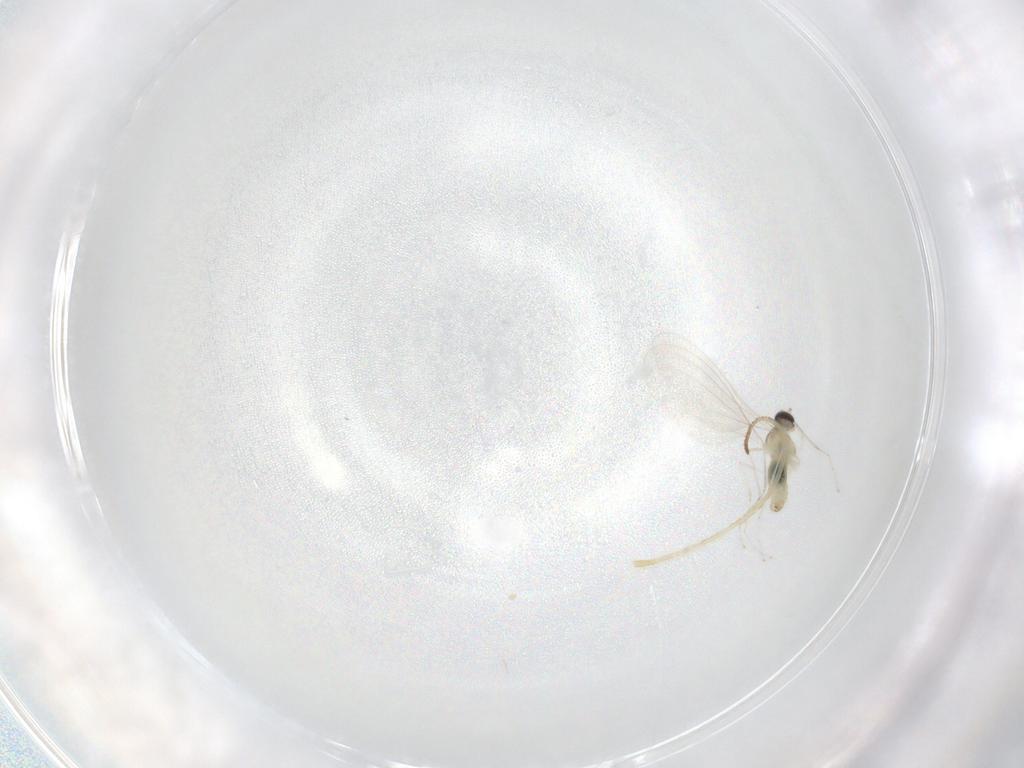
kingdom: Animalia
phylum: Arthropoda
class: Insecta
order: Diptera
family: Cecidomyiidae
